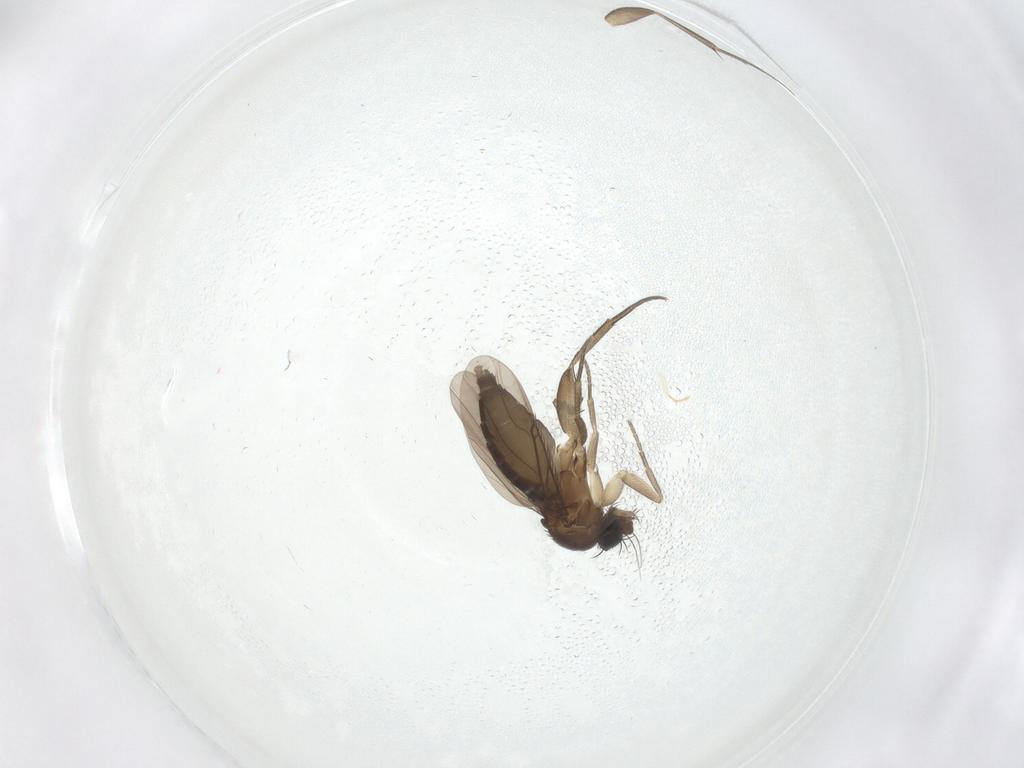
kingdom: Animalia
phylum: Arthropoda
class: Insecta
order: Diptera
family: Phoridae
